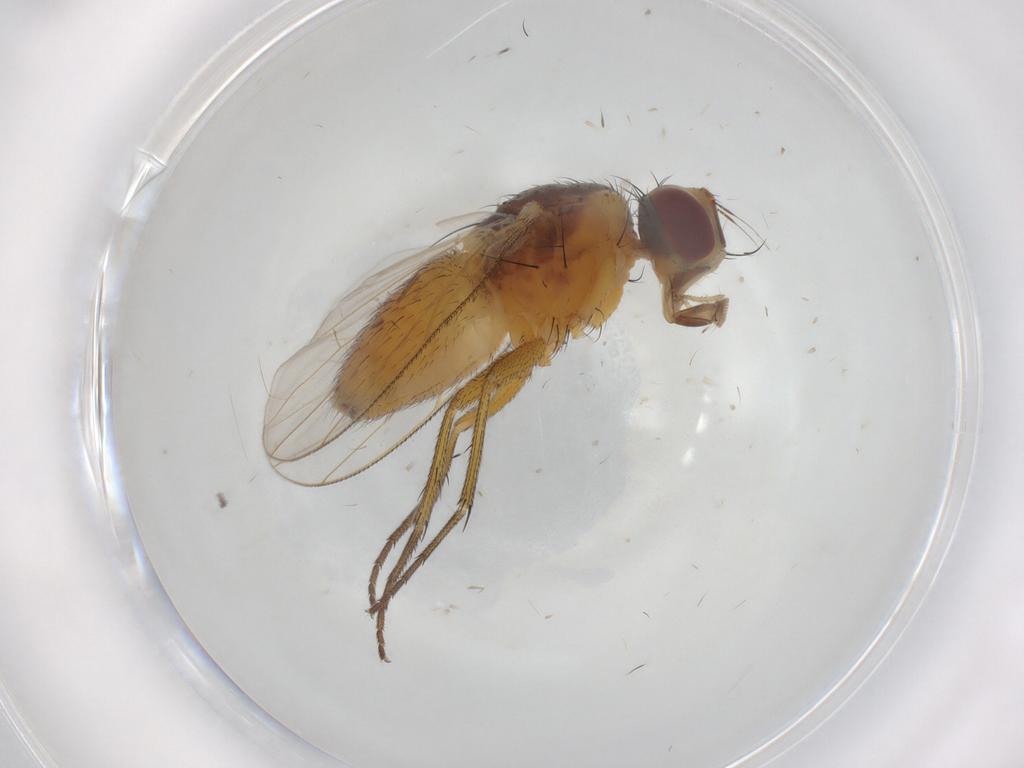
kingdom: Animalia
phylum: Arthropoda
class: Insecta
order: Diptera
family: Muscidae
